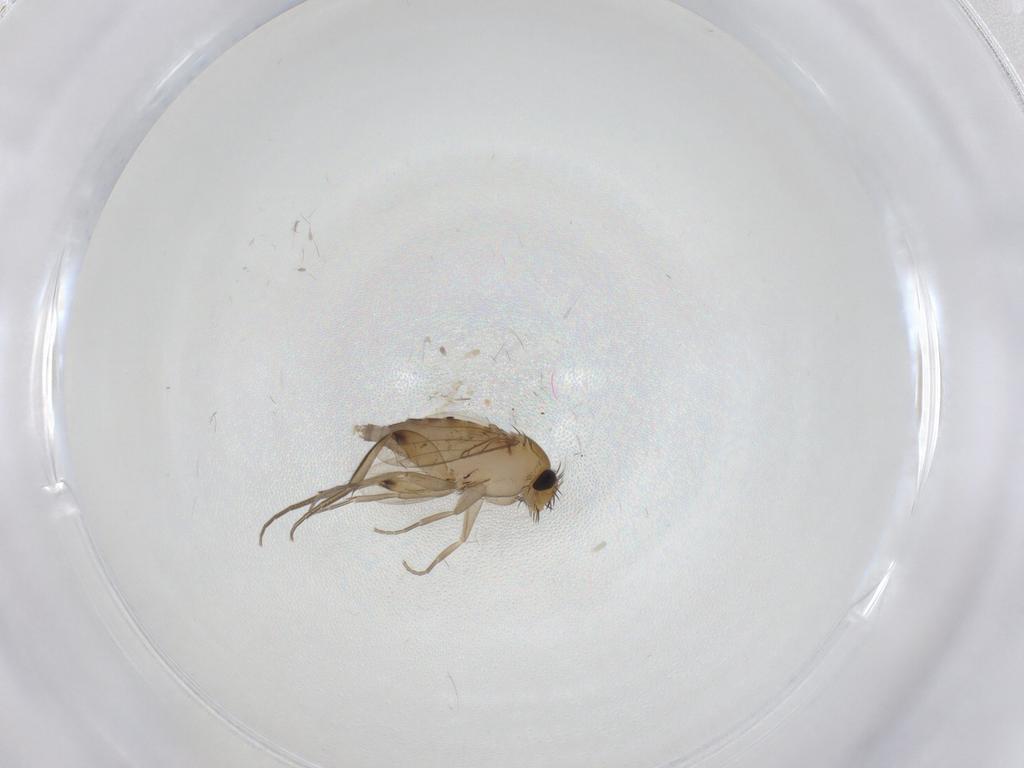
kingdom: Animalia
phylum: Arthropoda
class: Insecta
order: Diptera
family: Phoridae
